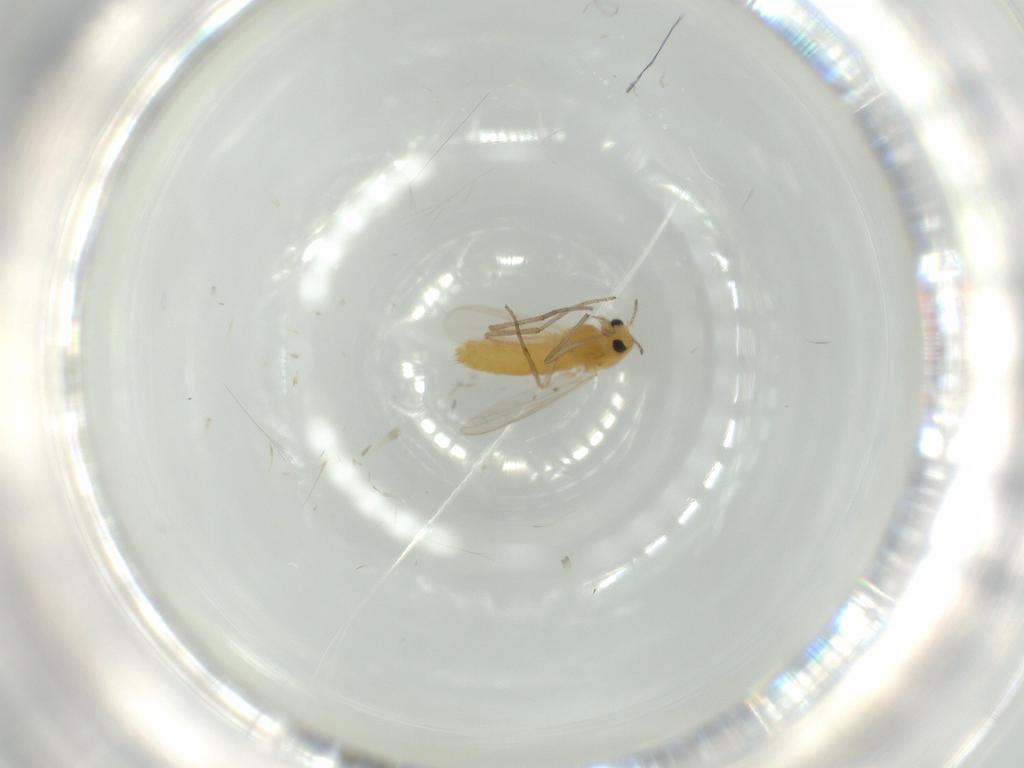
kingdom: Animalia
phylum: Arthropoda
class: Insecta
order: Diptera
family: Chironomidae
